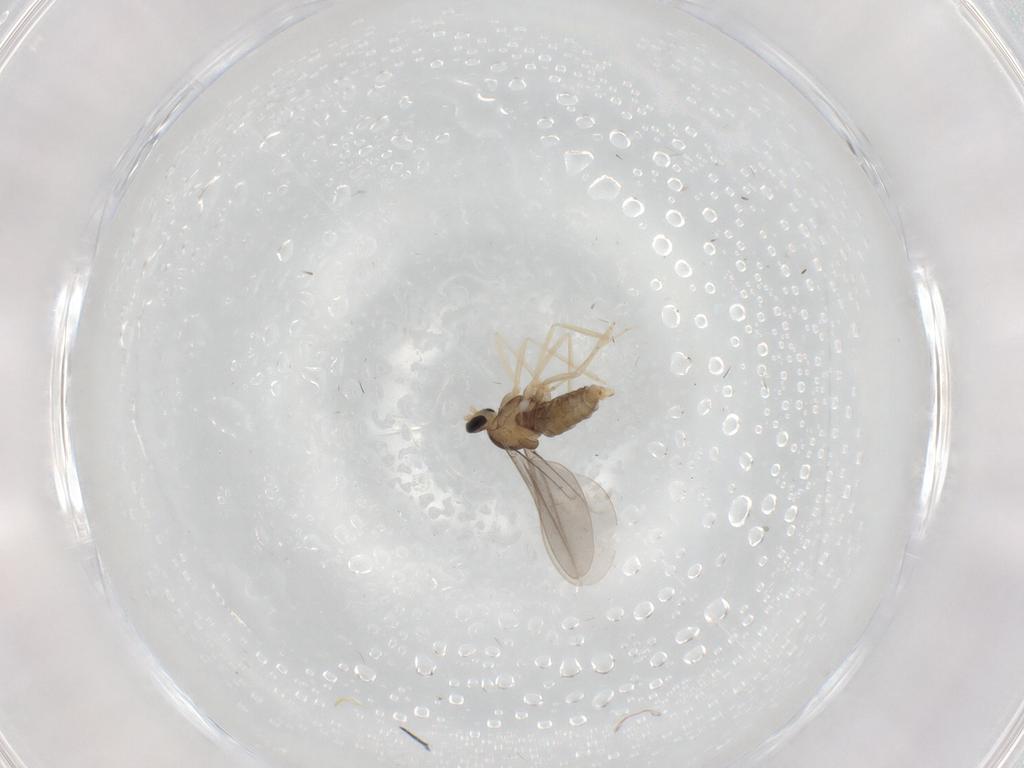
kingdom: Animalia
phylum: Arthropoda
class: Insecta
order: Diptera
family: Cecidomyiidae
